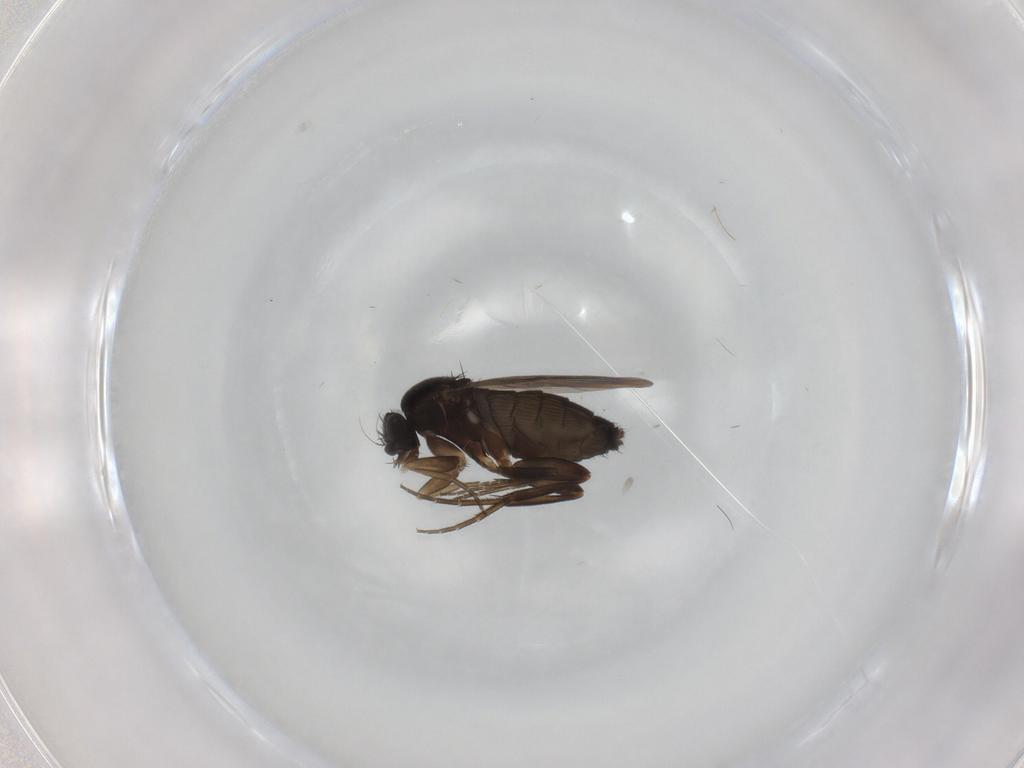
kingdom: Animalia
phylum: Arthropoda
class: Insecta
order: Diptera
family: Phoridae
